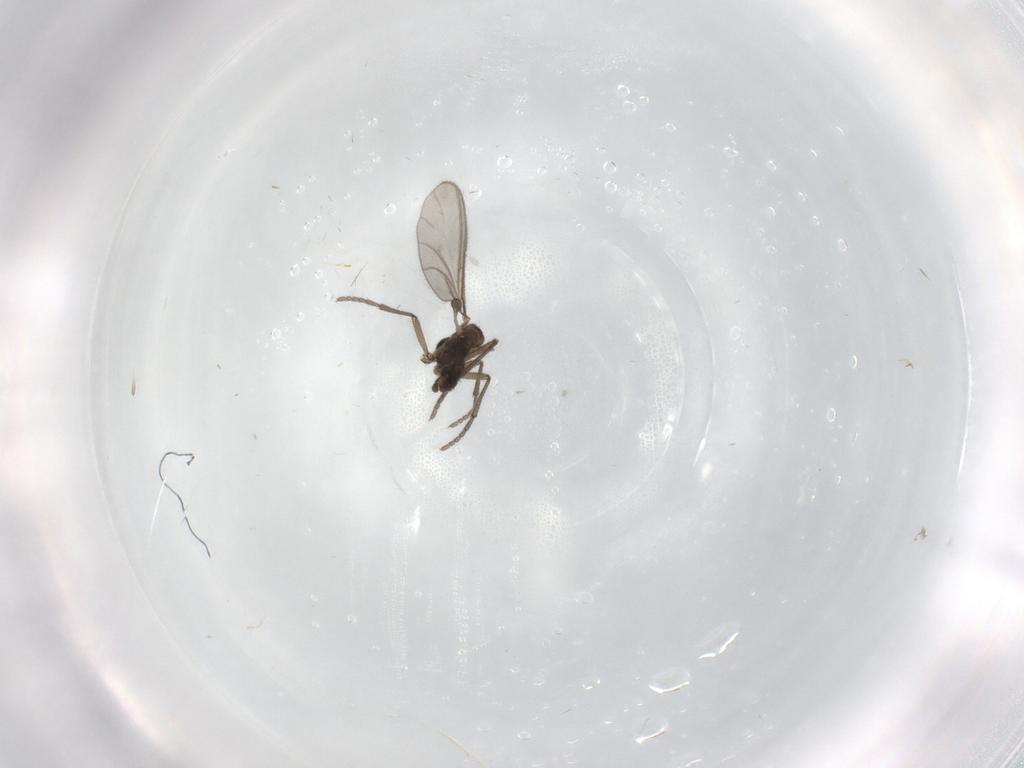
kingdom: Animalia
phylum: Arthropoda
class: Insecta
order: Diptera
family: Sciaridae
